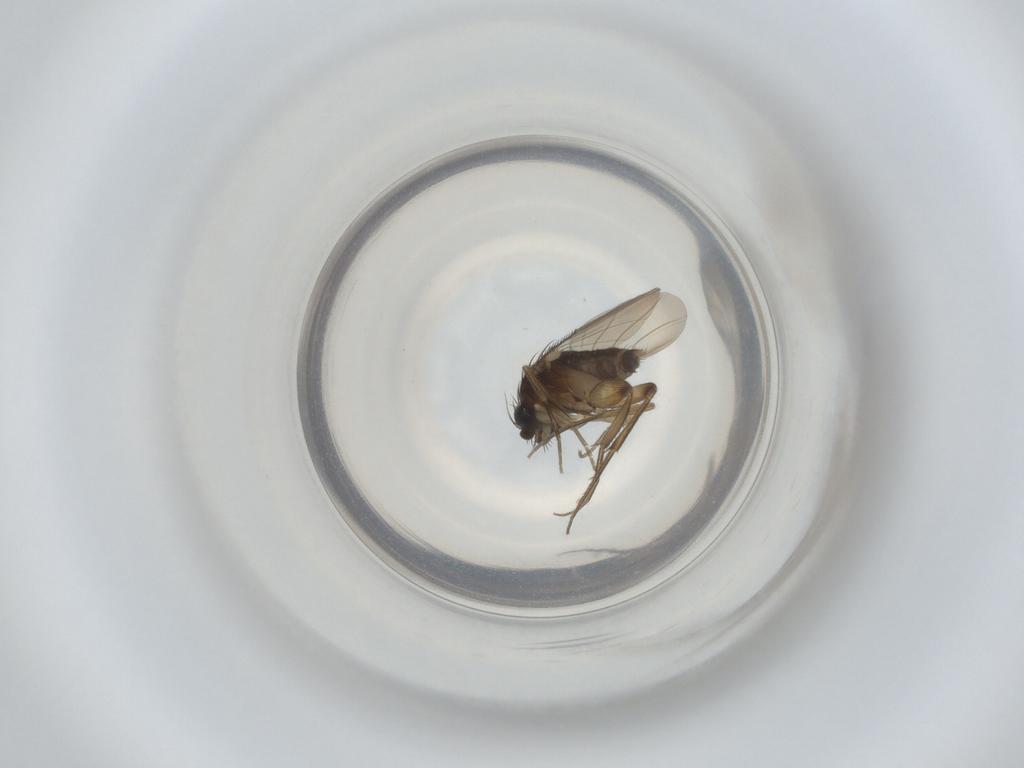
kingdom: Animalia
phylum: Arthropoda
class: Insecta
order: Diptera
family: Phoridae
